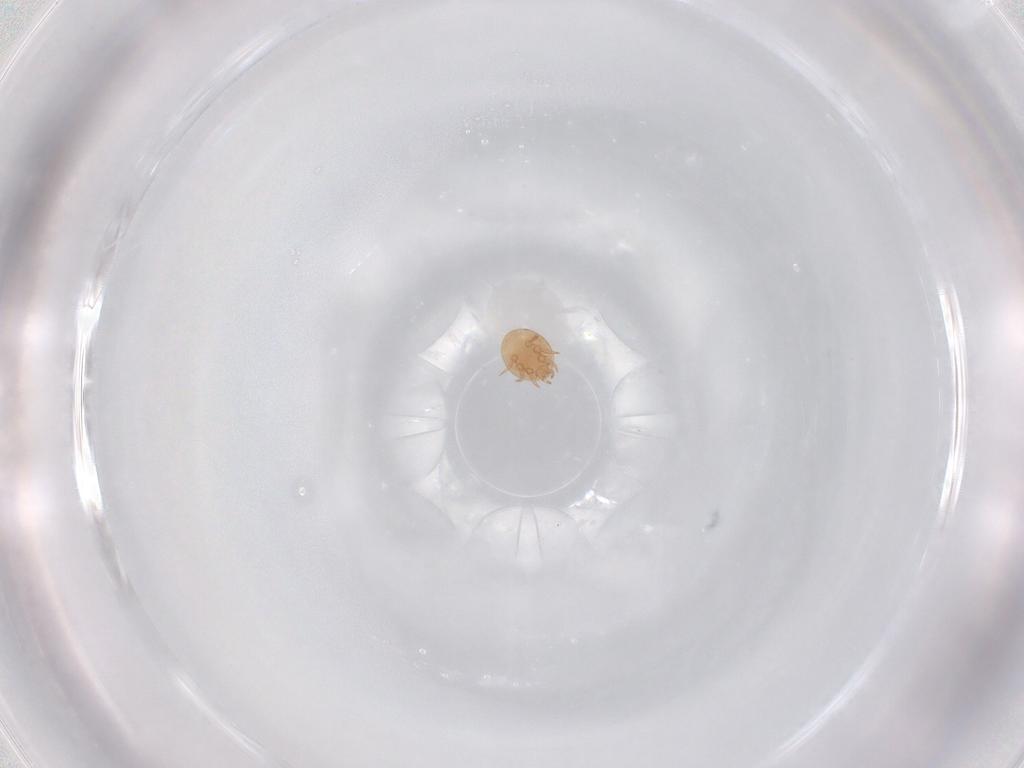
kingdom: Animalia
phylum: Arthropoda
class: Arachnida
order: Mesostigmata
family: Trematuridae
